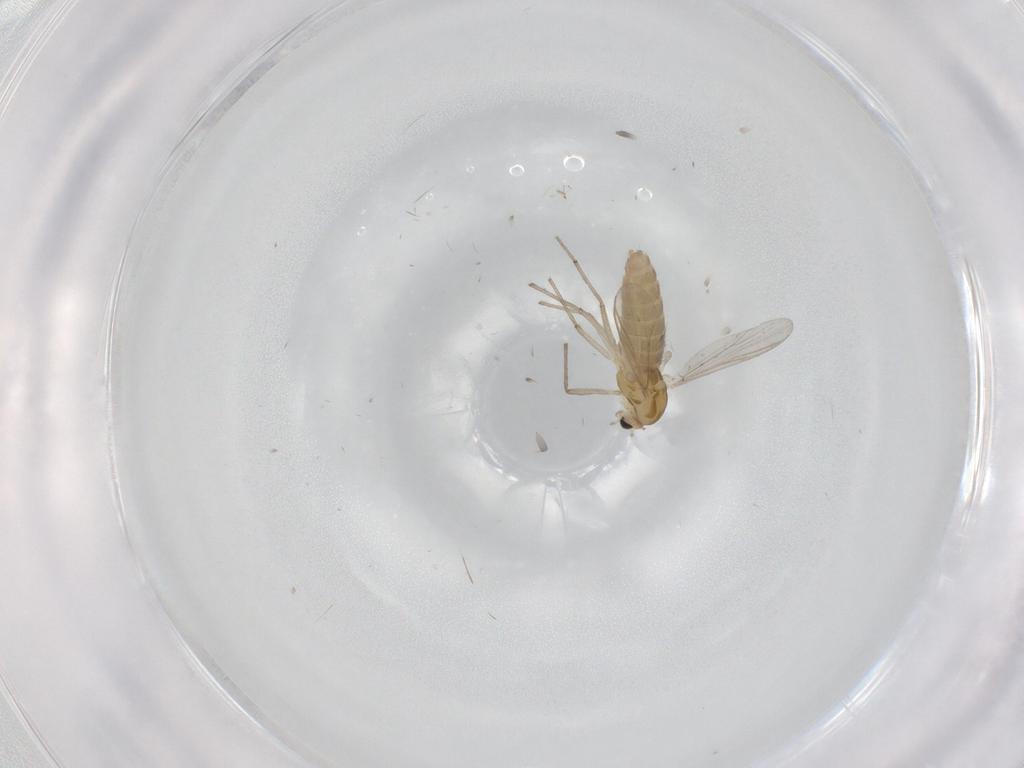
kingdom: Animalia
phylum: Arthropoda
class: Insecta
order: Diptera
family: Chironomidae
